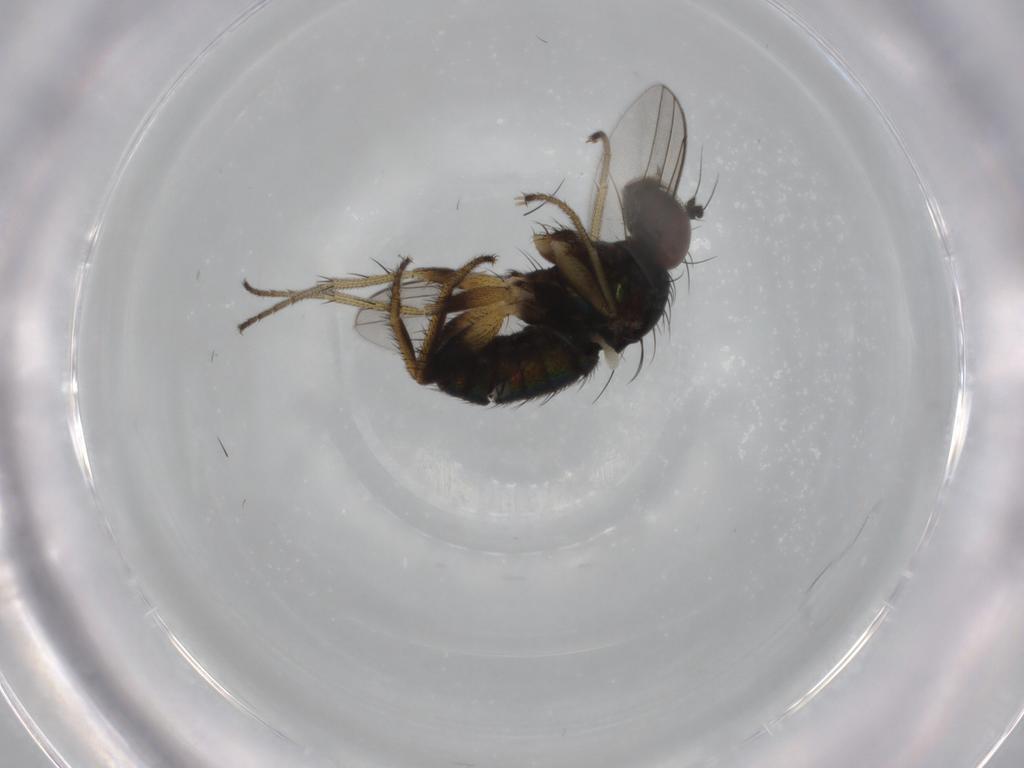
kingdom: Animalia
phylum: Arthropoda
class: Insecta
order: Diptera
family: Dolichopodidae
